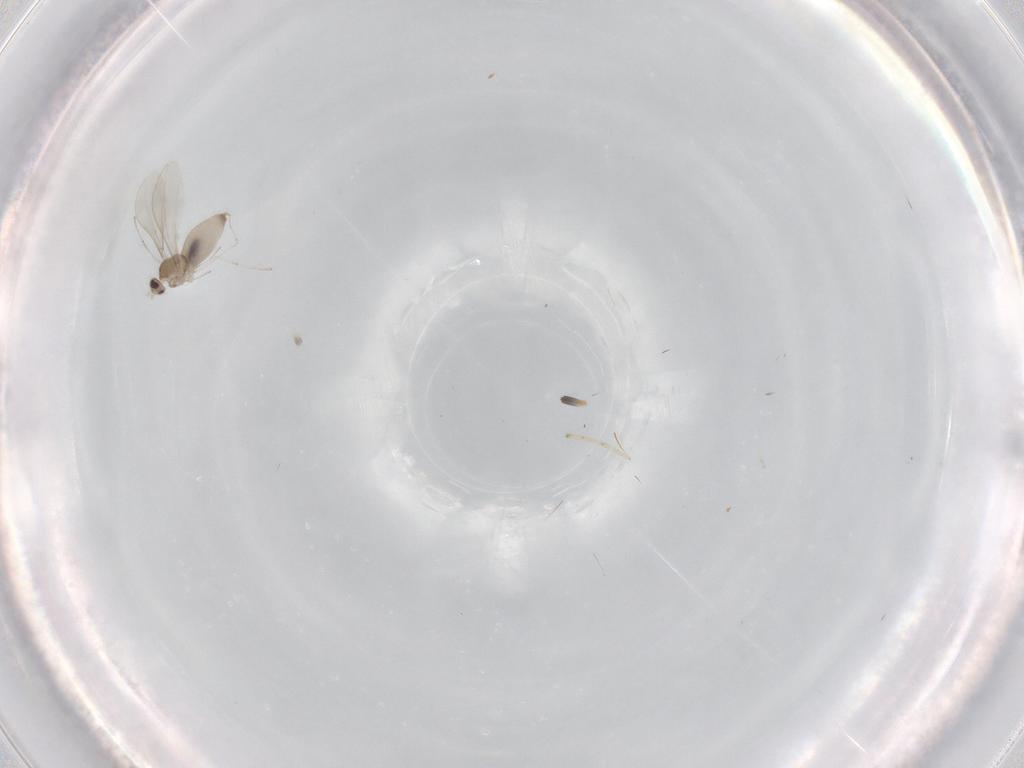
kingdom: Animalia
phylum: Arthropoda
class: Insecta
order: Diptera
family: Cecidomyiidae
